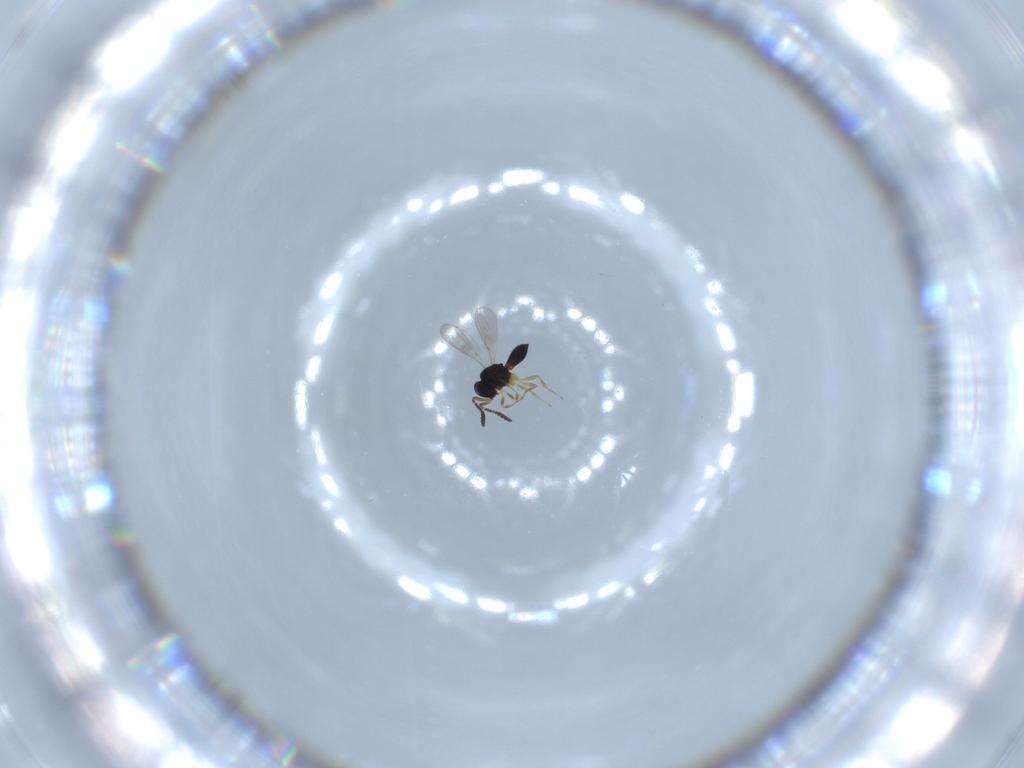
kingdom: Animalia
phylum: Arthropoda
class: Insecta
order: Hymenoptera
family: Scelionidae
